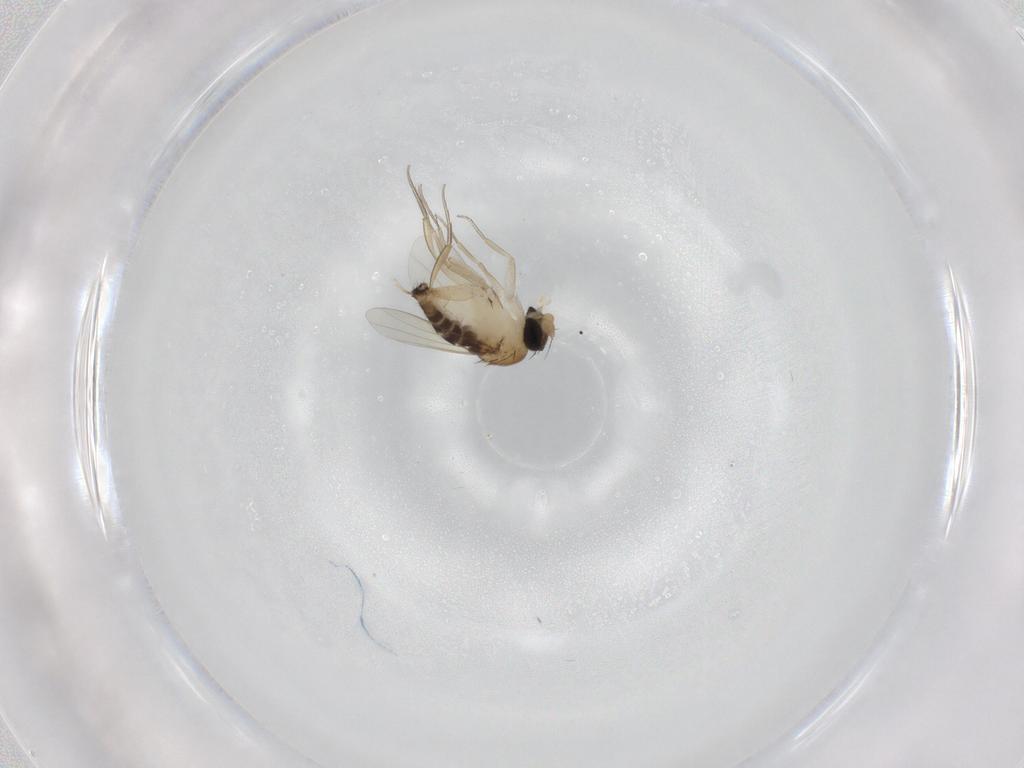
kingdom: Animalia
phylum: Arthropoda
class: Insecta
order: Diptera
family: Phoridae
